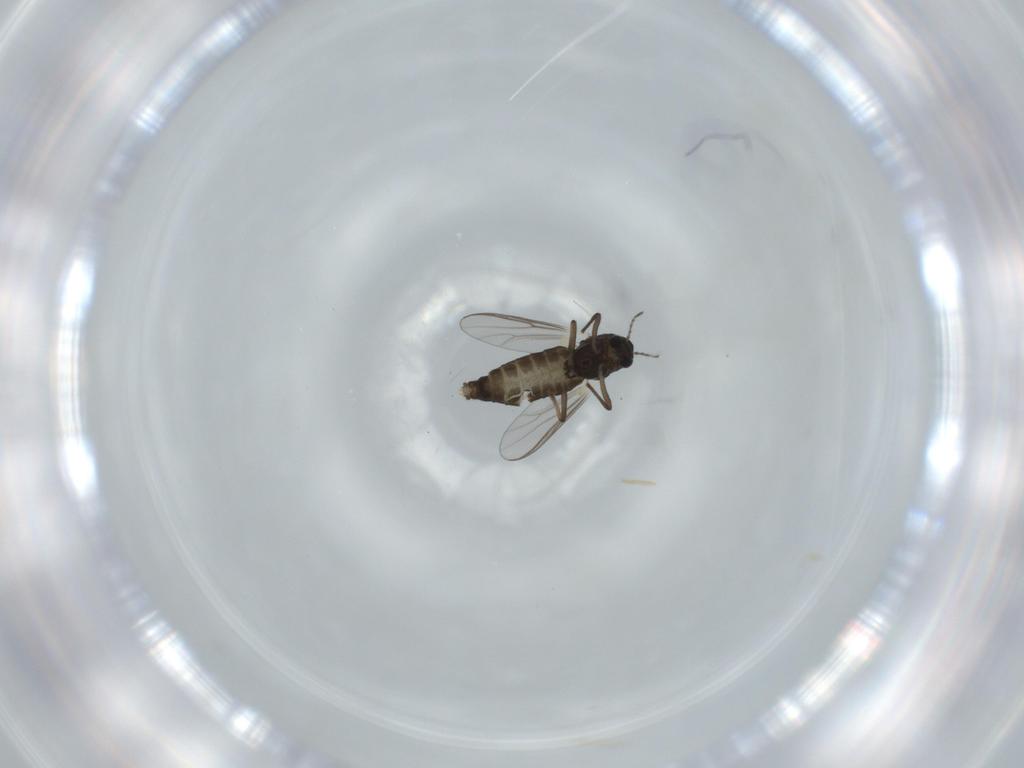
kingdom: Animalia
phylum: Arthropoda
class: Insecta
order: Diptera
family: Chironomidae
